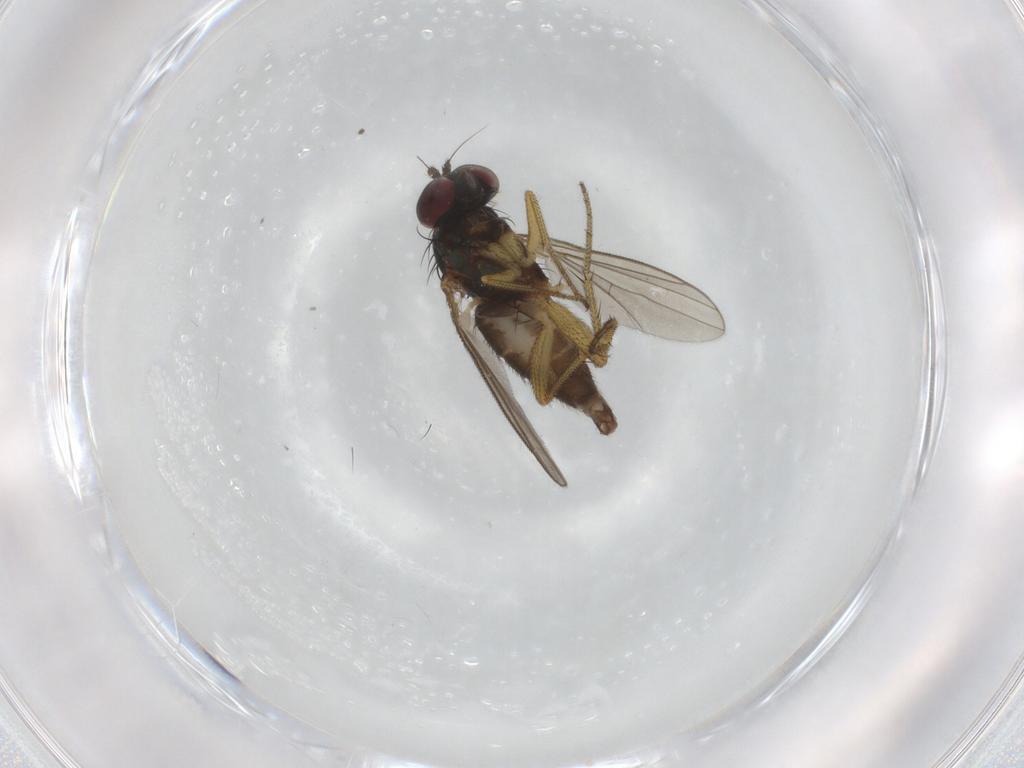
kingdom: Animalia
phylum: Arthropoda
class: Insecta
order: Diptera
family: Dolichopodidae
